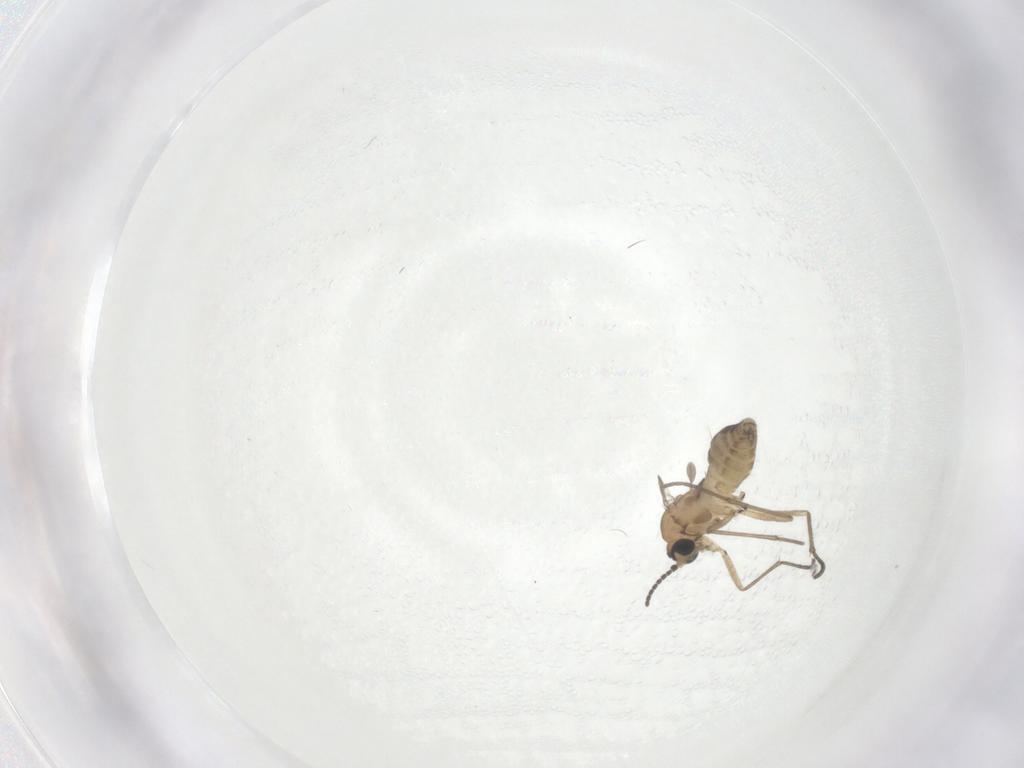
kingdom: Animalia
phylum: Arthropoda
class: Insecta
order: Diptera
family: Sciaridae
